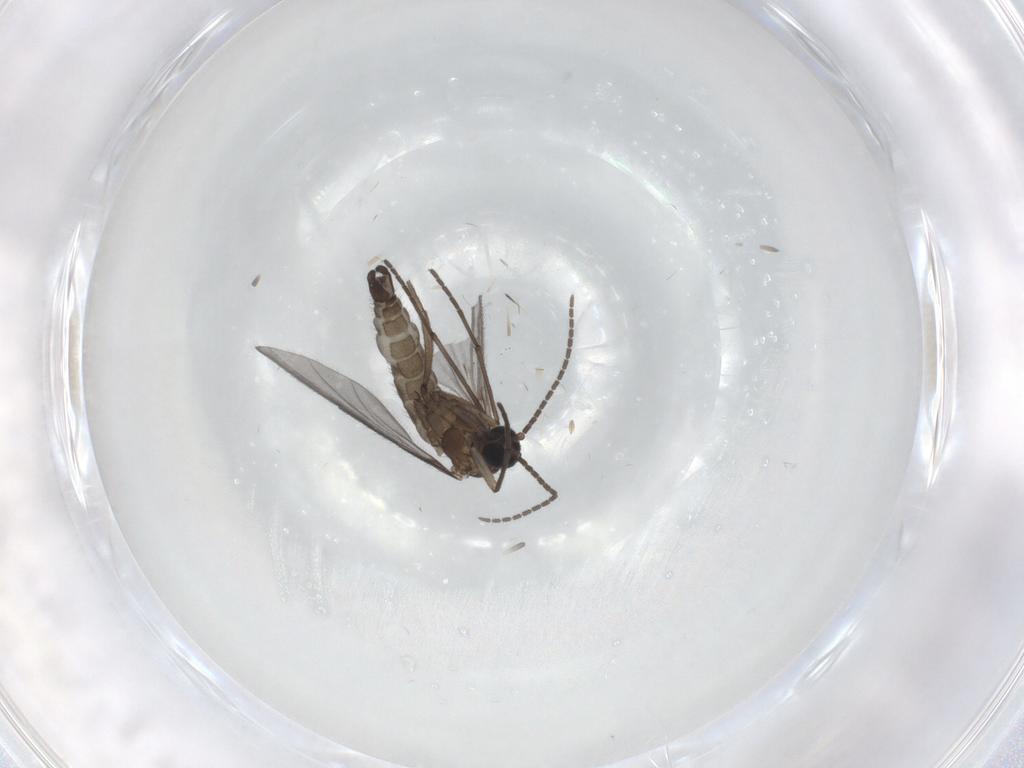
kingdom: Animalia
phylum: Arthropoda
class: Insecta
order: Diptera
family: Sciaridae
